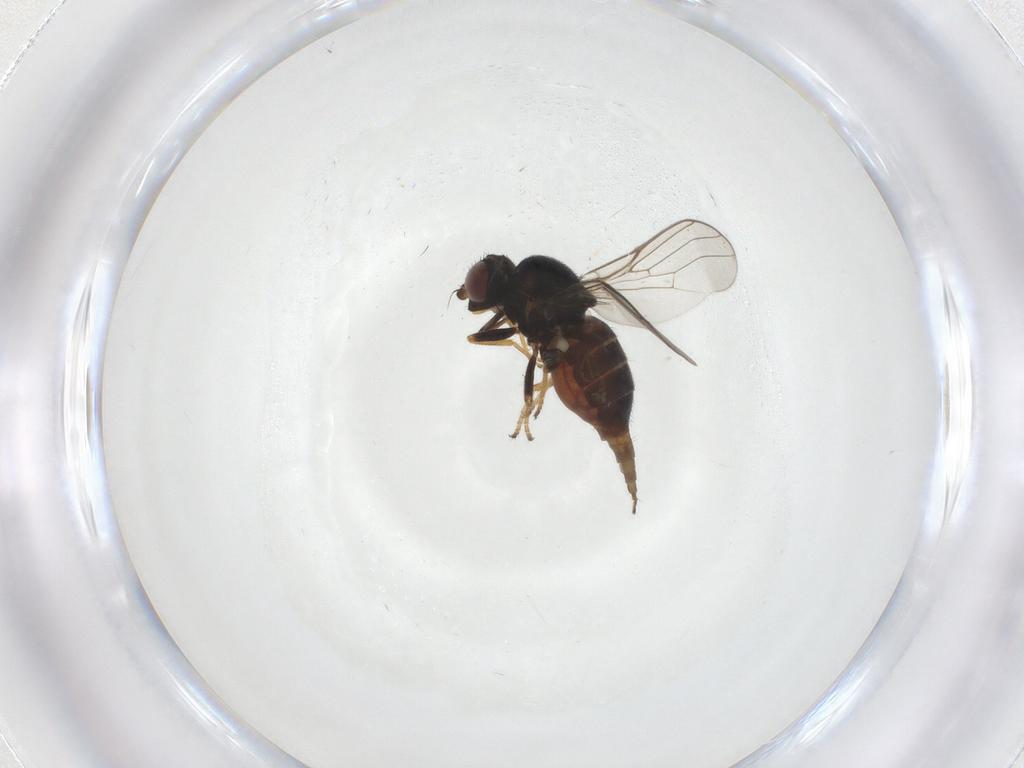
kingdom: Animalia
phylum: Arthropoda
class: Insecta
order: Diptera
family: Chloropidae
